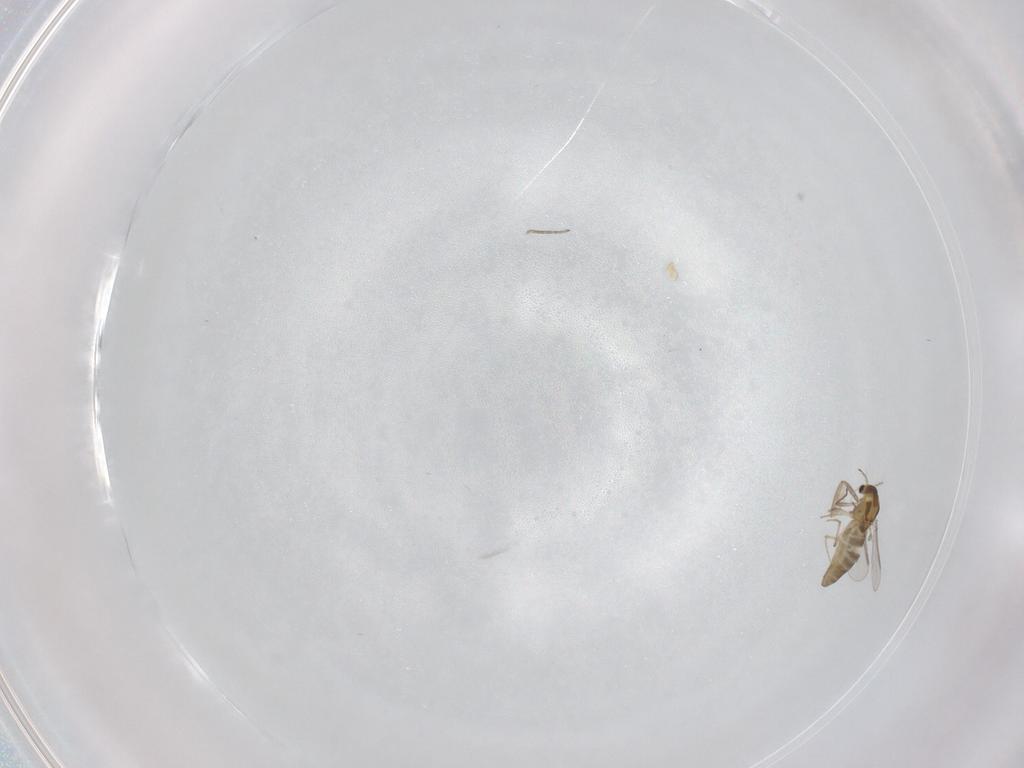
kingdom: Animalia
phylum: Arthropoda
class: Insecta
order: Diptera
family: Chironomidae
